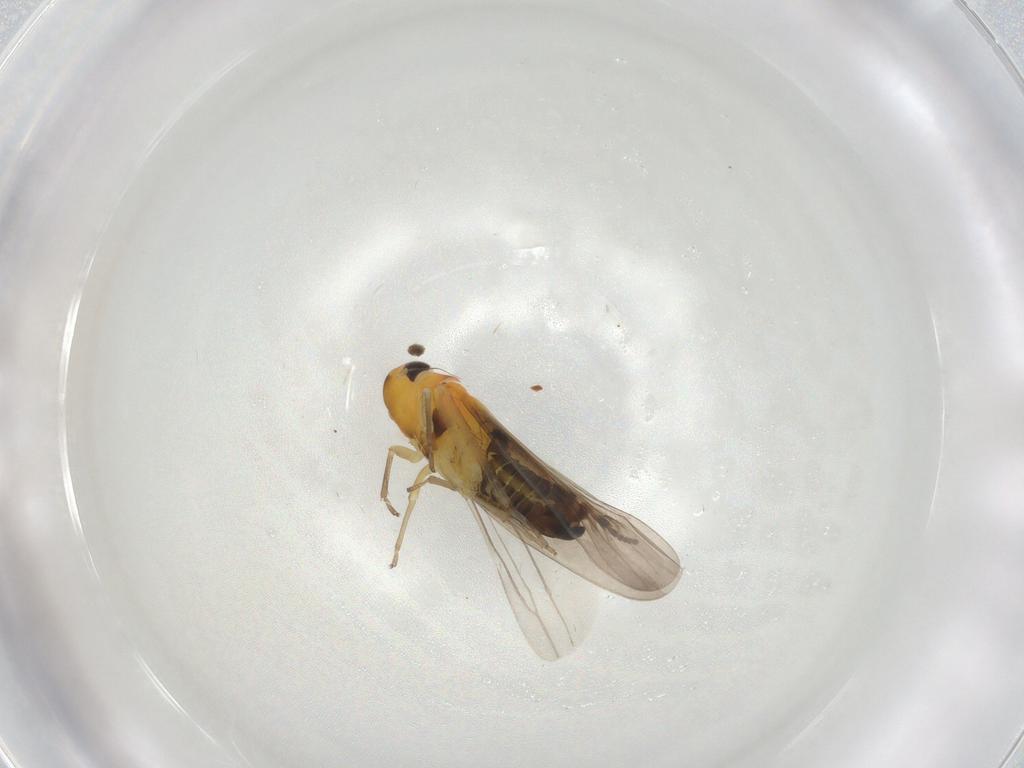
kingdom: Animalia
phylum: Arthropoda
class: Insecta
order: Hemiptera
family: Cicadellidae
